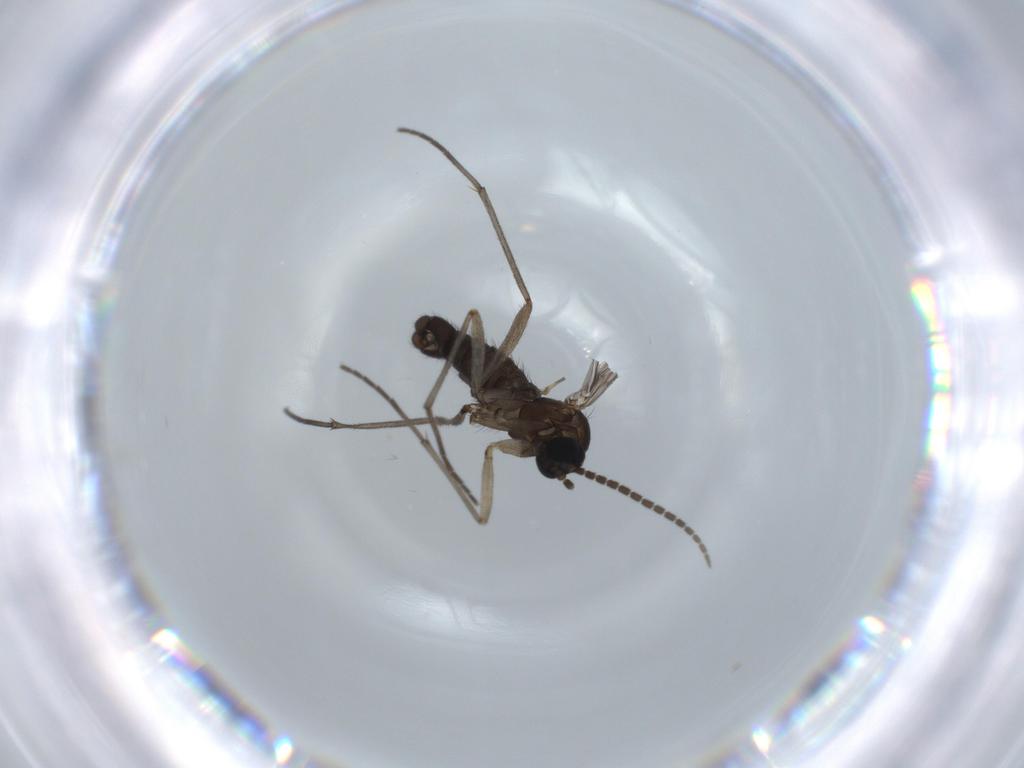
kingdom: Animalia
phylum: Arthropoda
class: Insecta
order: Diptera
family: Sciaridae
